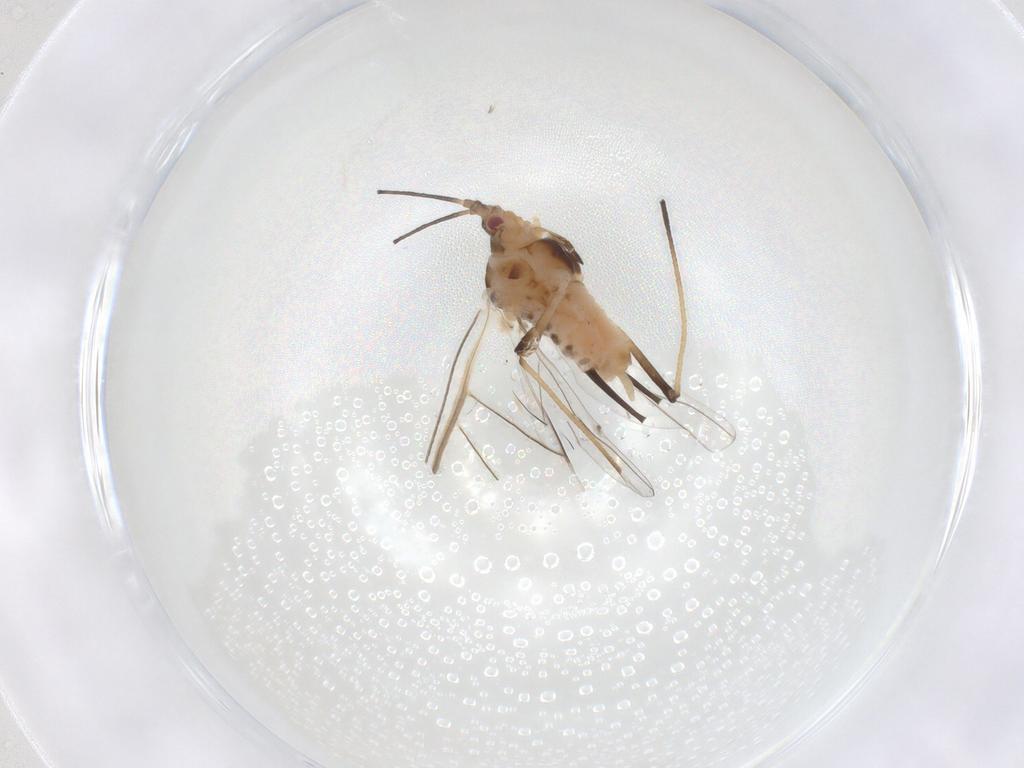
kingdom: Animalia
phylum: Arthropoda
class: Insecta
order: Hemiptera
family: Aphididae
